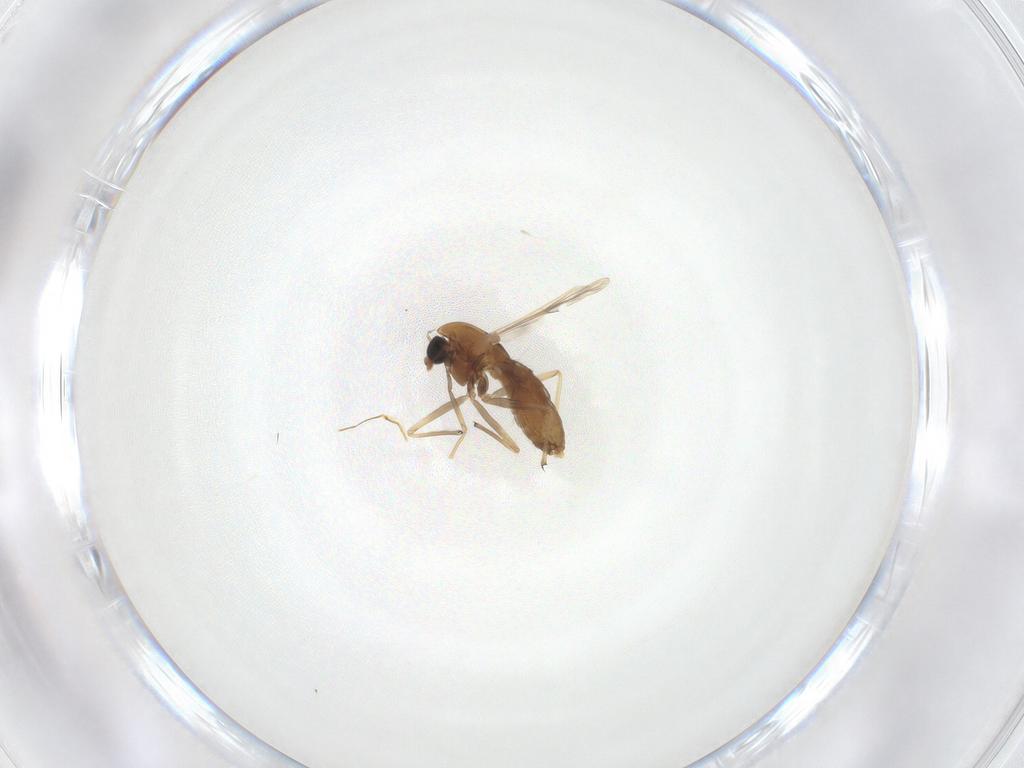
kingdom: Animalia
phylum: Arthropoda
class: Insecta
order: Diptera
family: Chironomidae
